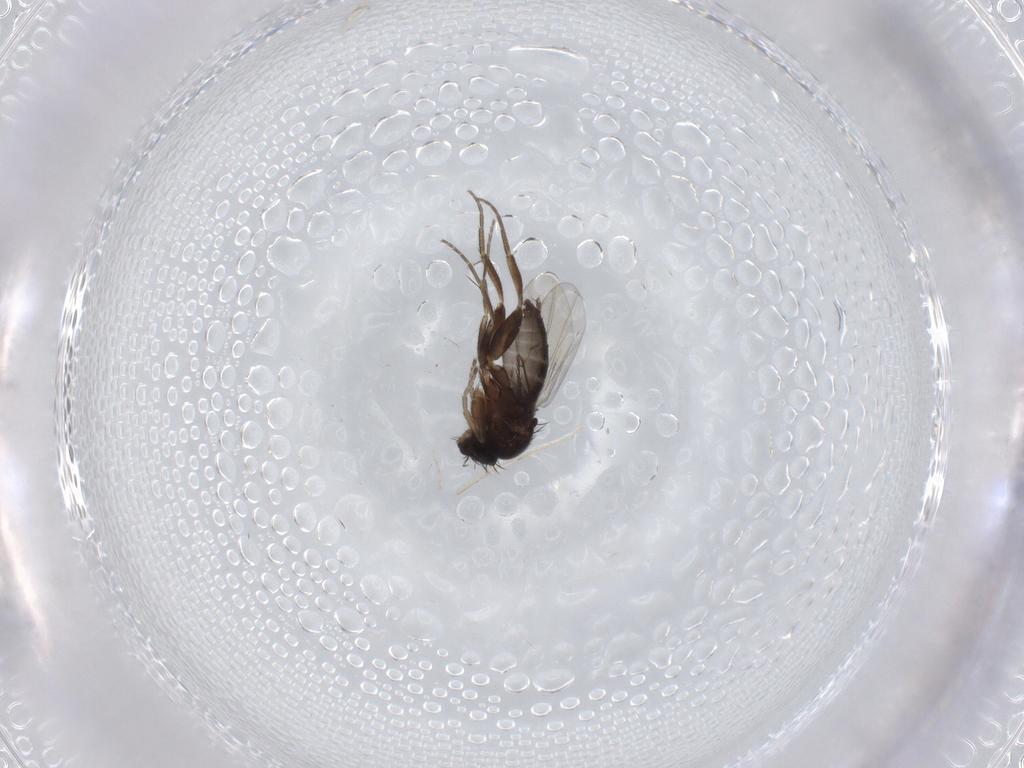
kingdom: Animalia
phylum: Arthropoda
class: Insecta
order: Diptera
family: Phoridae
